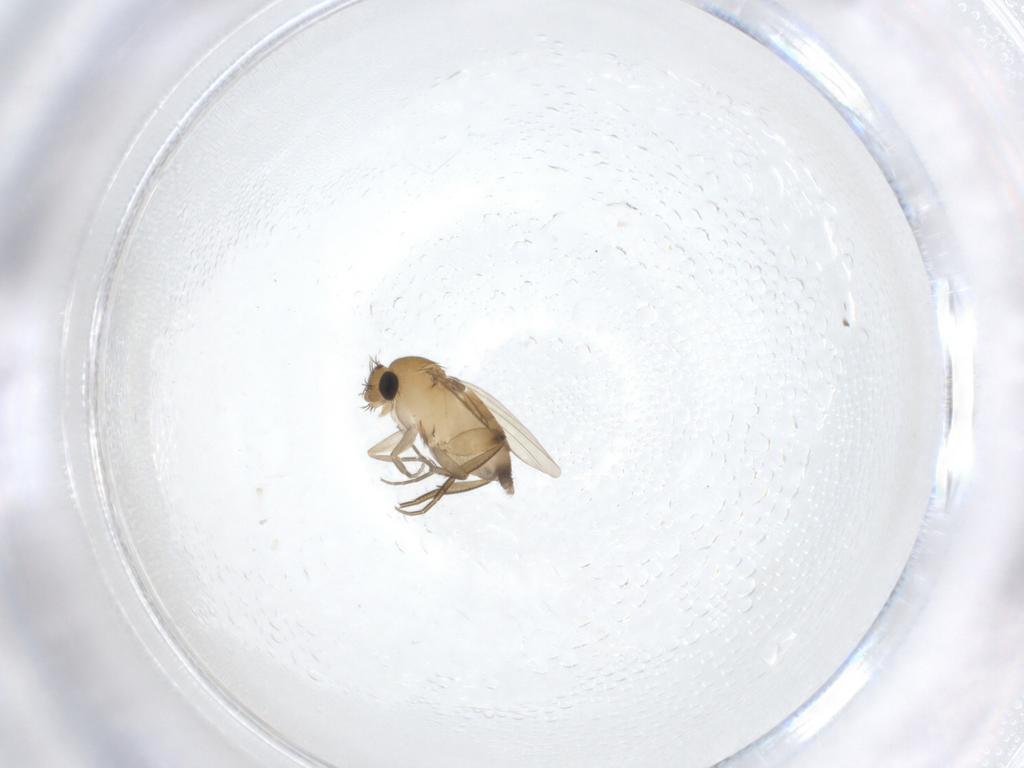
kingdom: Animalia
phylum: Arthropoda
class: Insecta
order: Diptera
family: Phoridae
